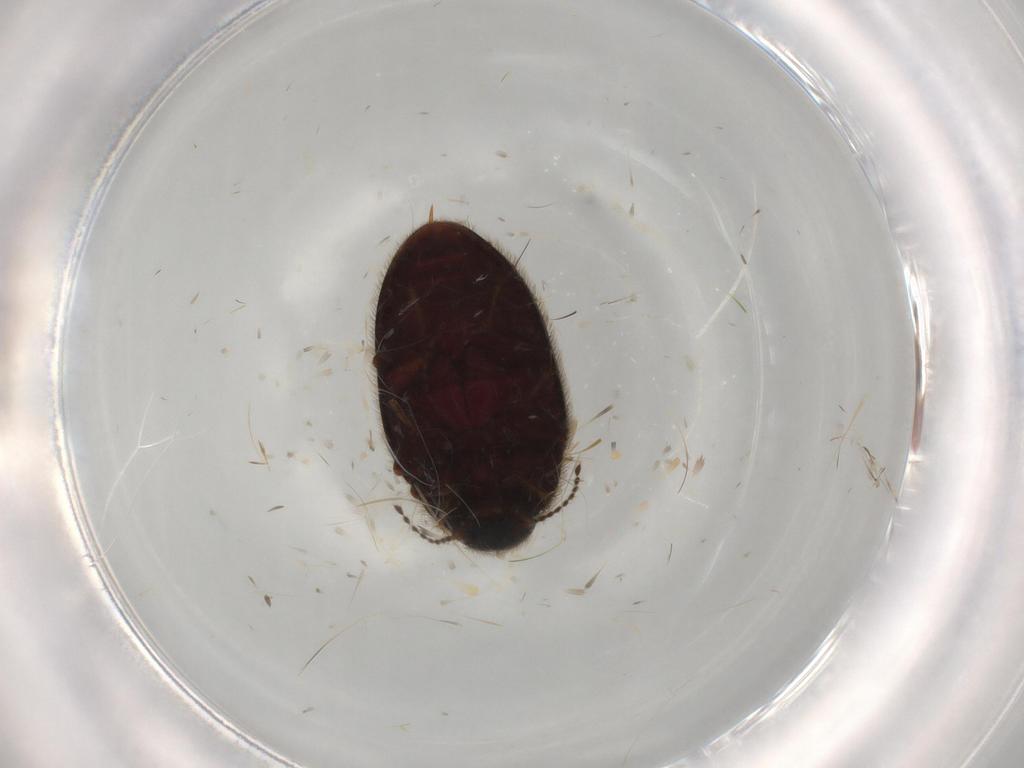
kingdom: Animalia
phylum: Arthropoda
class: Insecta
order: Coleoptera
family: Limnichidae
